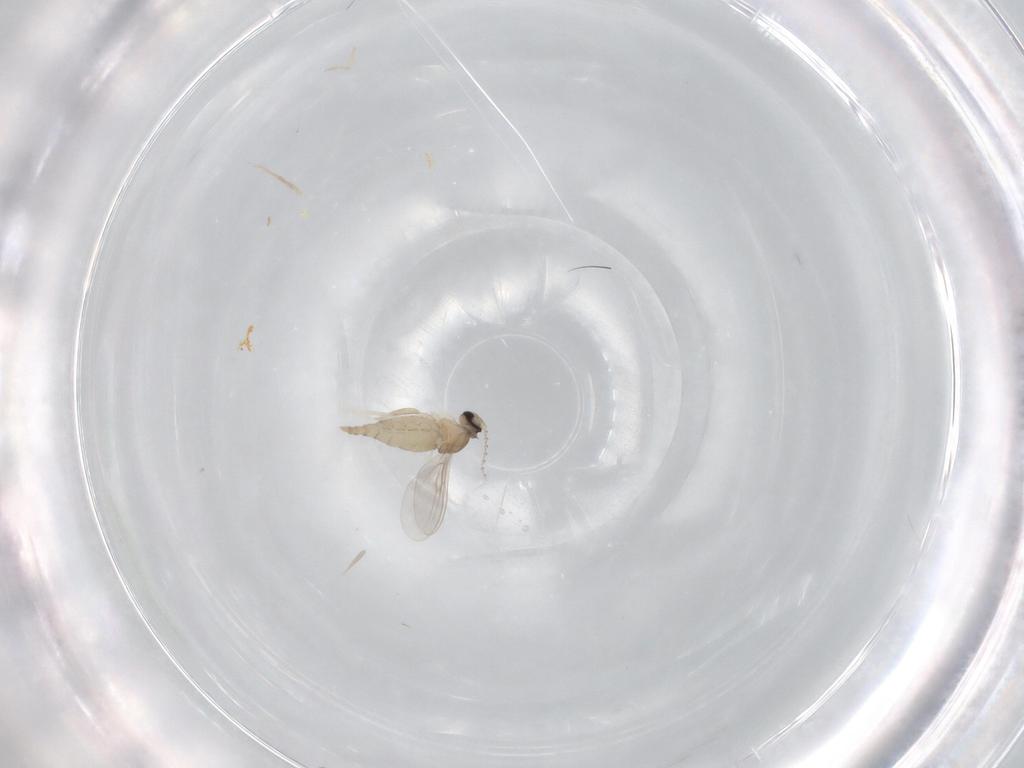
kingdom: Animalia
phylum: Arthropoda
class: Insecta
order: Diptera
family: Cecidomyiidae
